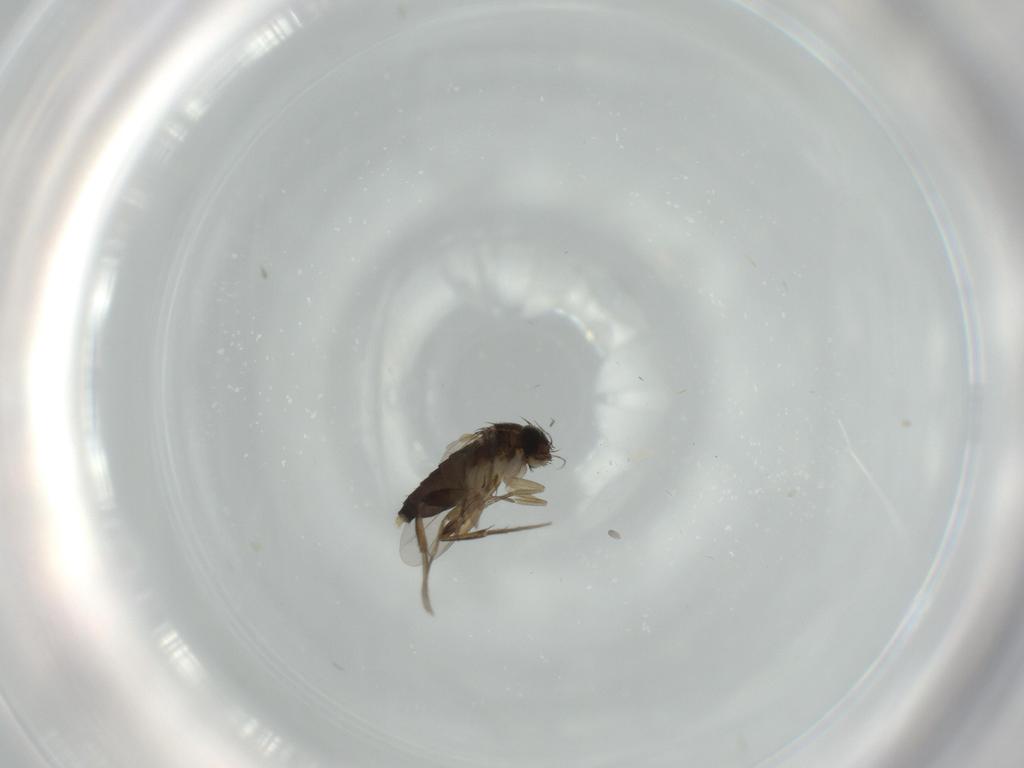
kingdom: Animalia
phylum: Arthropoda
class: Insecta
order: Diptera
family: Phoridae
